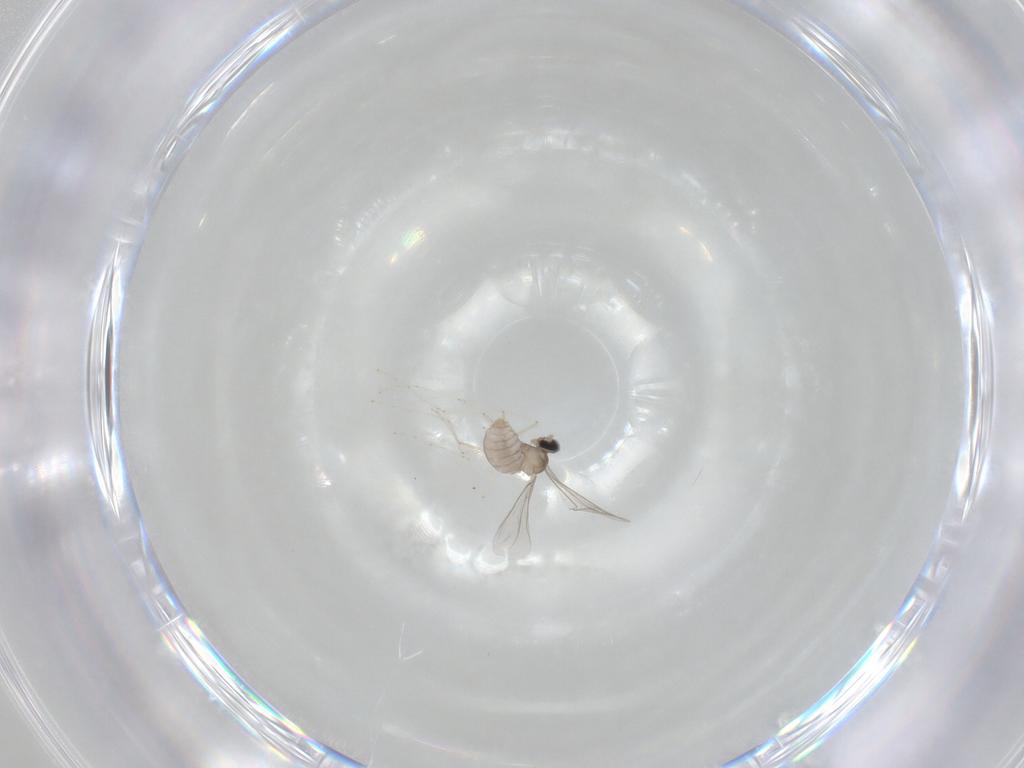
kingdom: Animalia
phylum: Arthropoda
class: Insecta
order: Diptera
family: Cecidomyiidae
